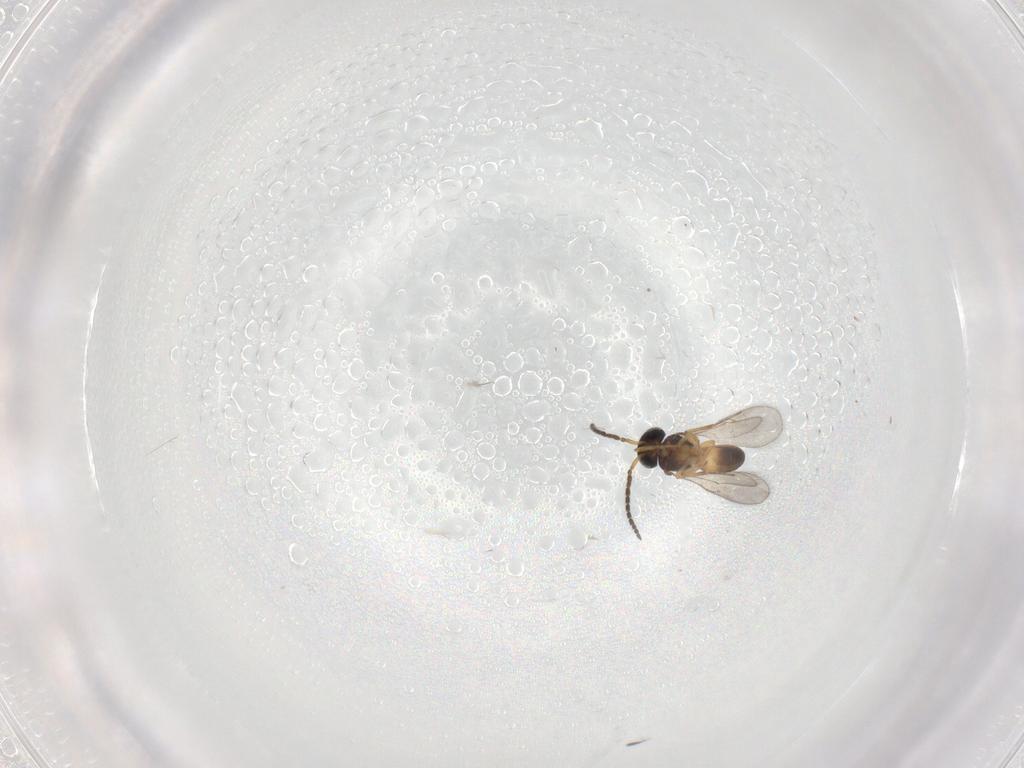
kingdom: Animalia
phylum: Arthropoda
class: Insecta
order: Hymenoptera
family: Scelionidae
